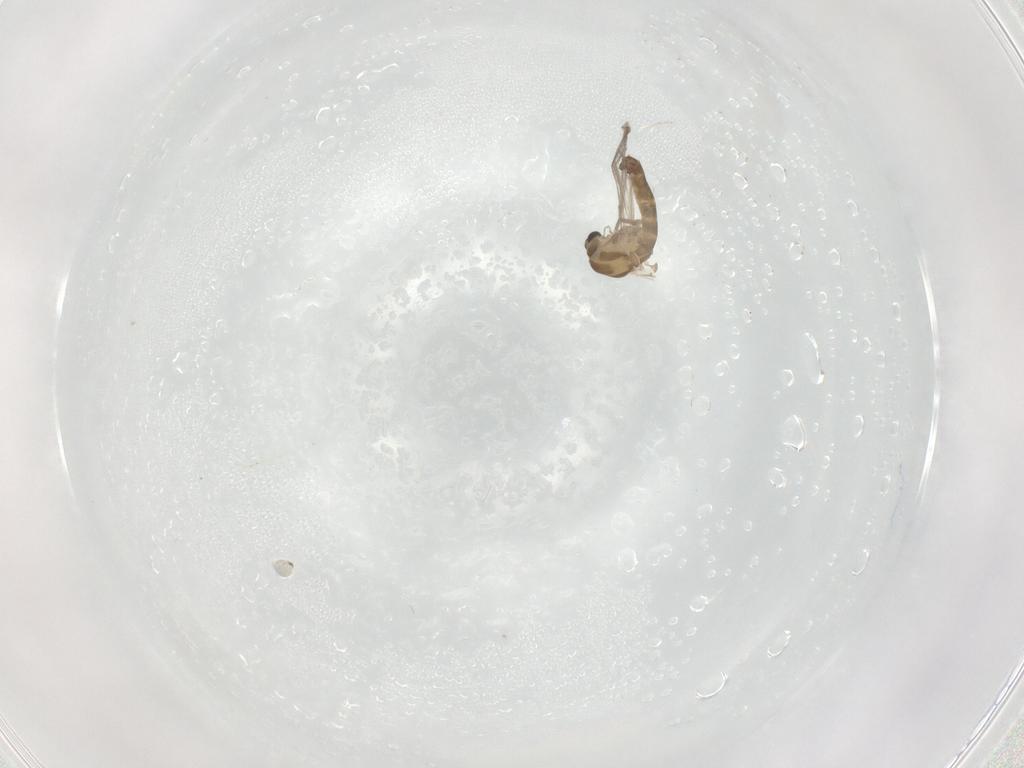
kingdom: Animalia
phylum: Arthropoda
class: Insecta
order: Diptera
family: Chironomidae
